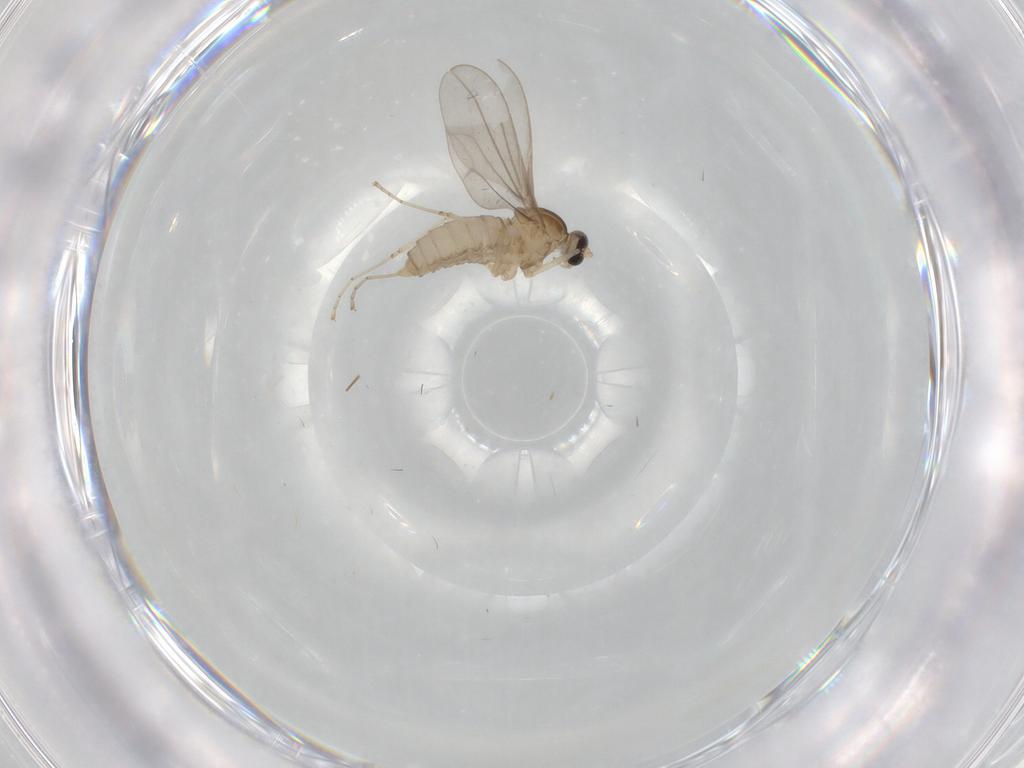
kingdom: Animalia
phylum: Arthropoda
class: Insecta
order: Diptera
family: Cecidomyiidae
